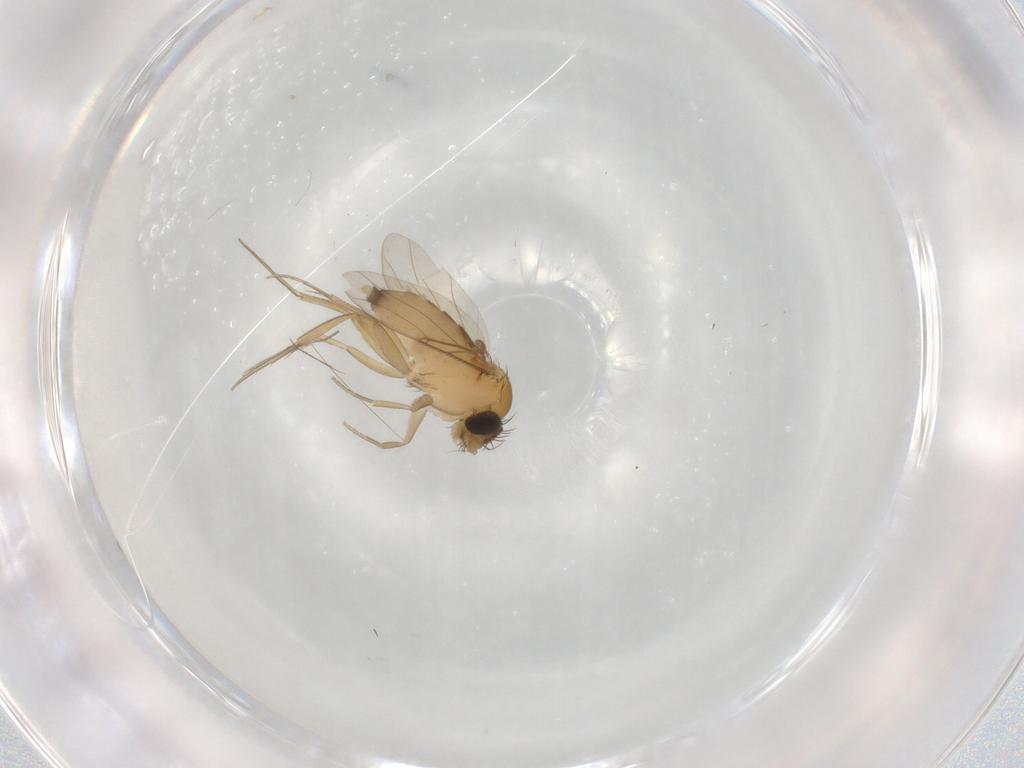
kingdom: Animalia
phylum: Arthropoda
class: Insecta
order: Diptera
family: Phoridae
